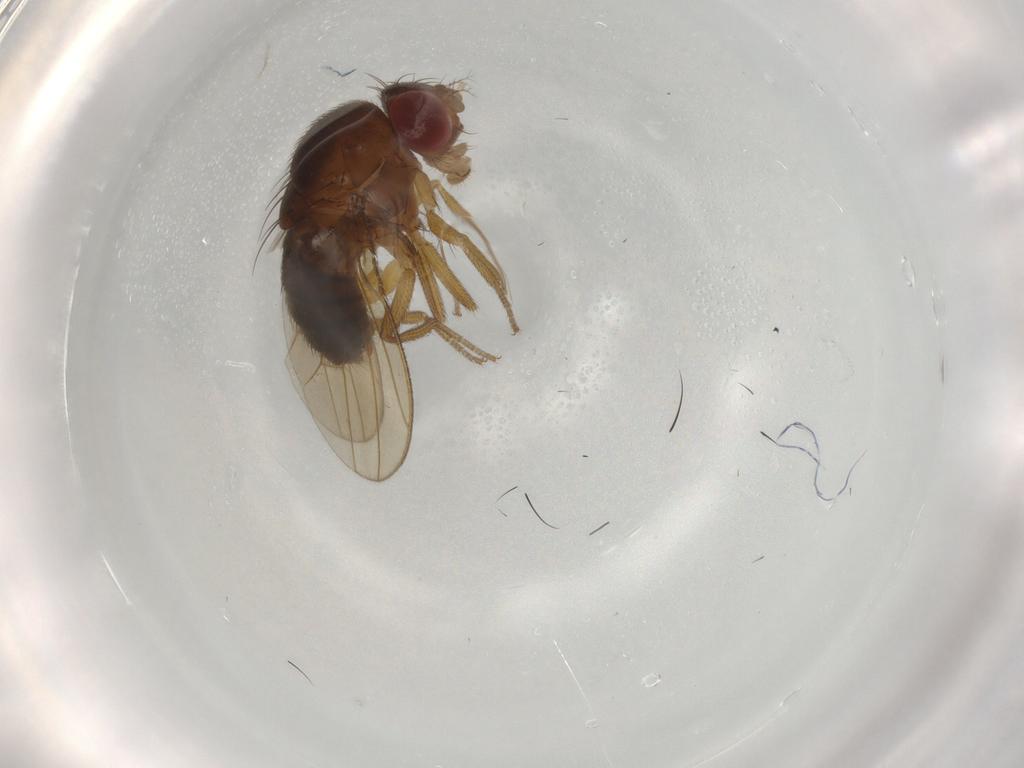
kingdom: Animalia
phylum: Arthropoda
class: Insecta
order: Diptera
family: Drosophilidae
